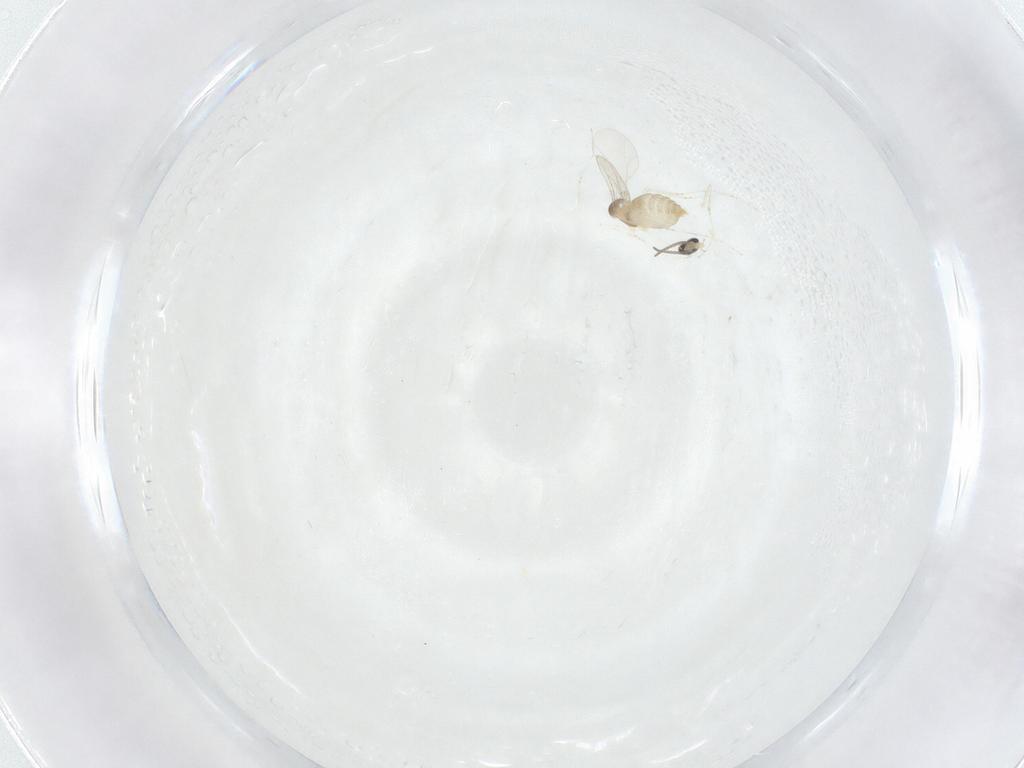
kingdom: Animalia
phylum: Arthropoda
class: Insecta
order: Diptera
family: Cecidomyiidae
